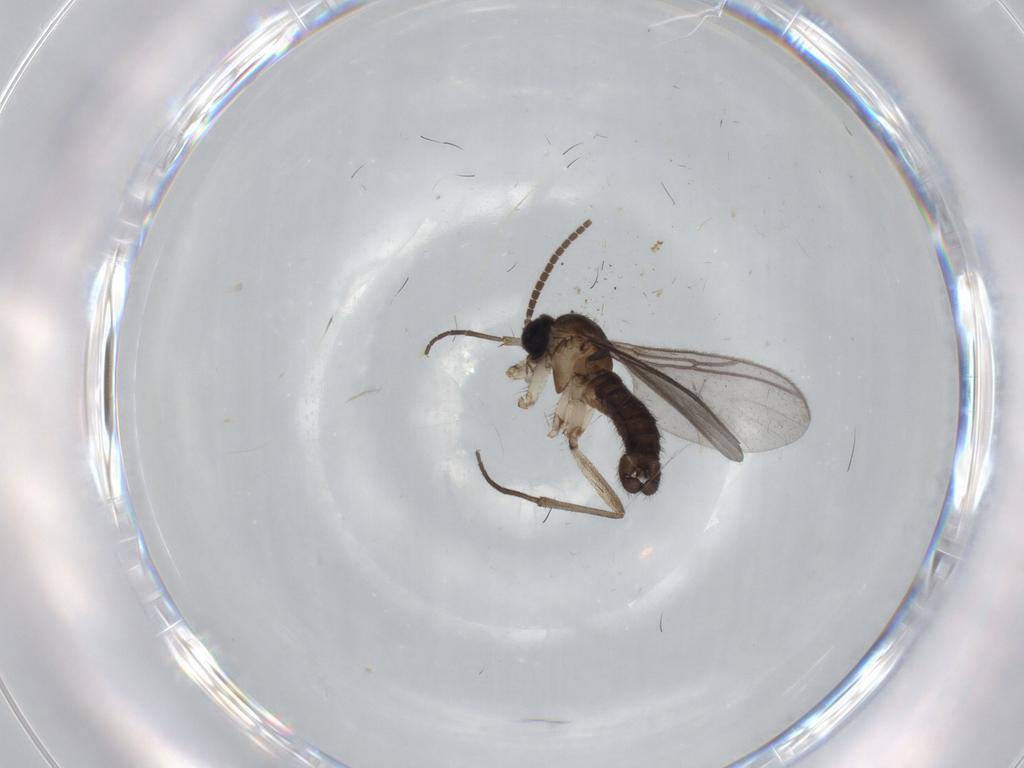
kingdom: Animalia
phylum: Arthropoda
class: Insecta
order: Diptera
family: Sciaridae
